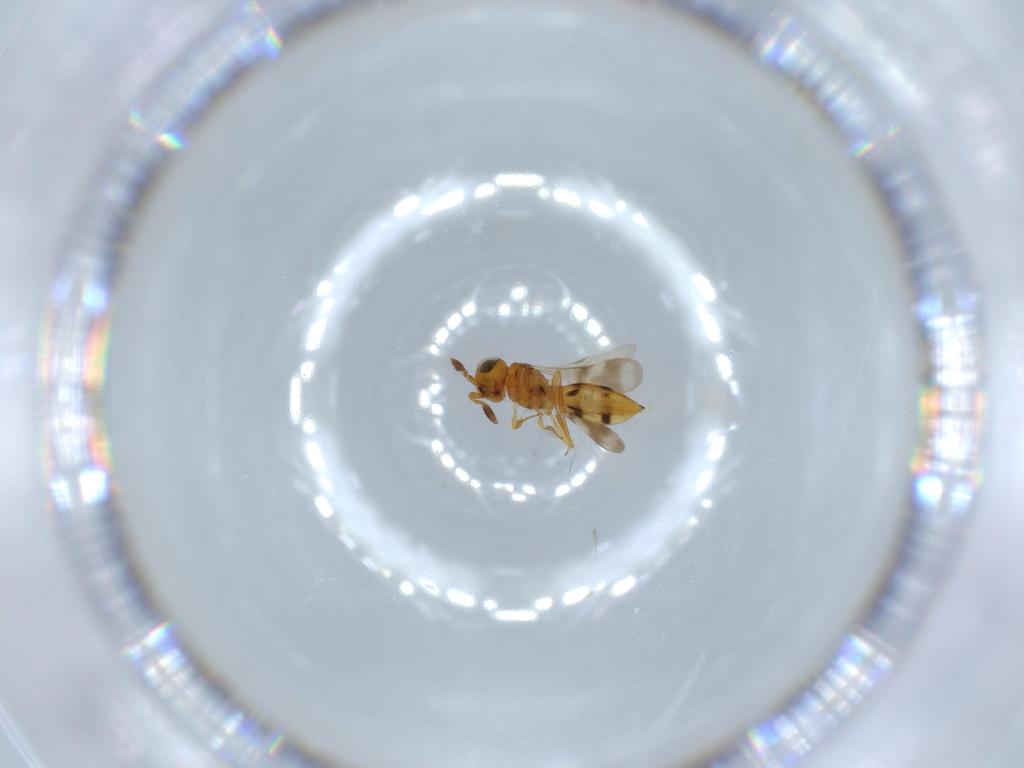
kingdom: Animalia
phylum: Arthropoda
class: Insecta
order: Hymenoptera
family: Scelionidae
